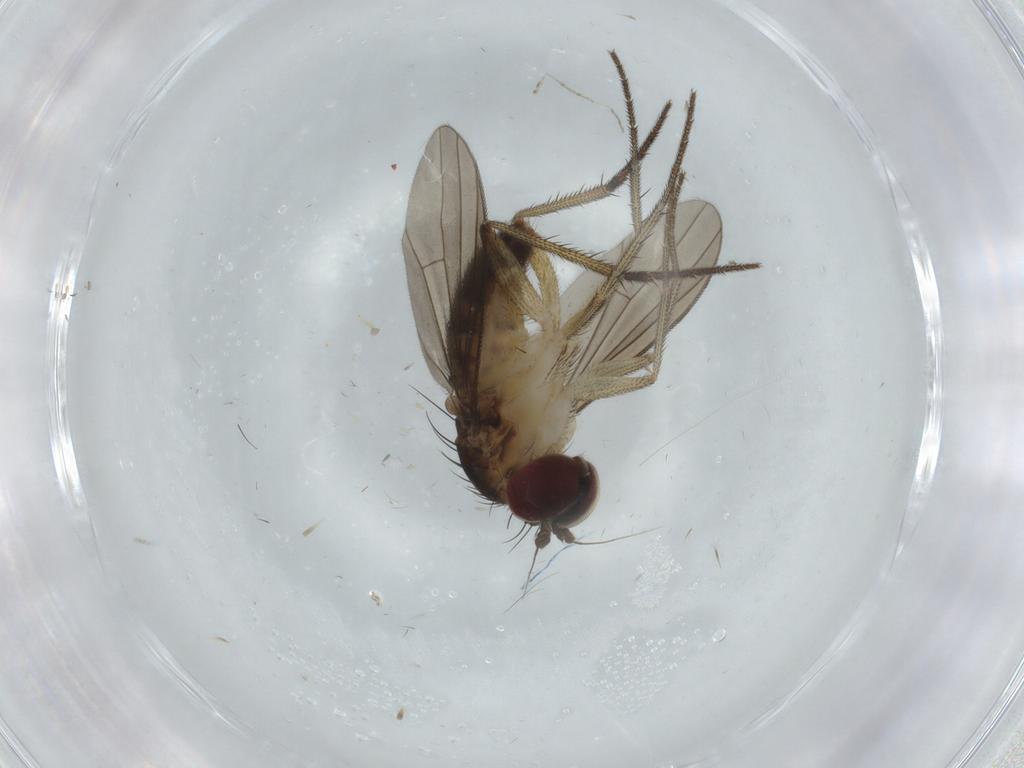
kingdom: Animalia
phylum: Arthropoda
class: Insecta
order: Diptera
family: Dolichopodidae
